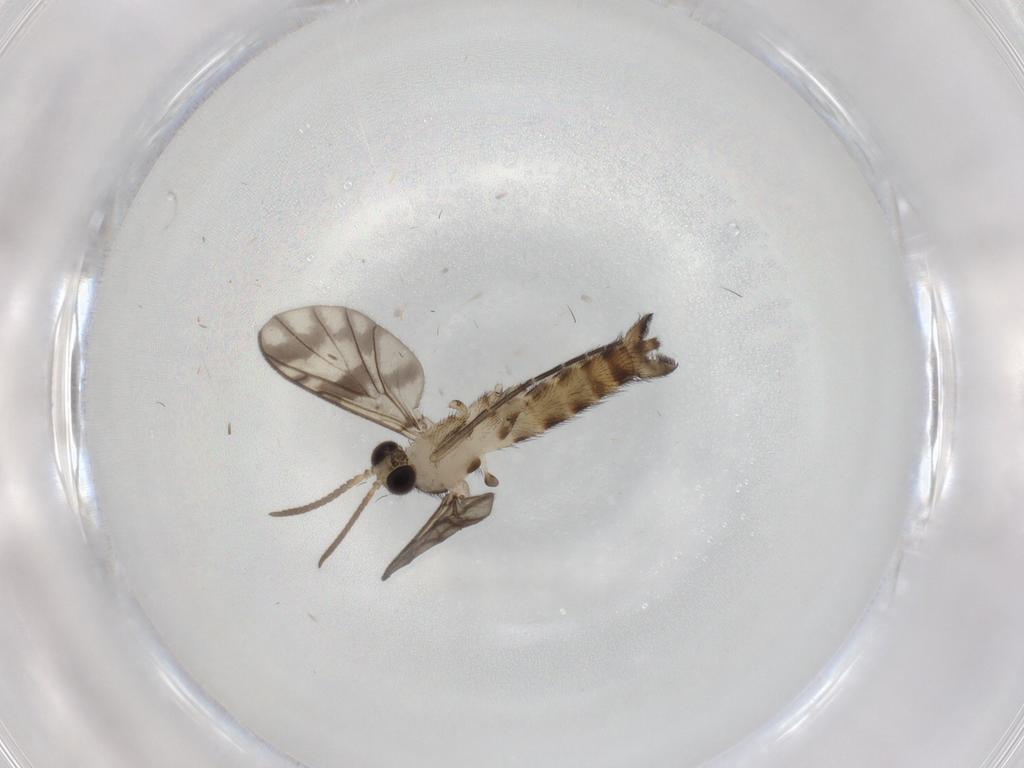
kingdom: Animalia
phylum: Arthropoda
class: Insecta
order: Diptera
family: Keroplatidae
